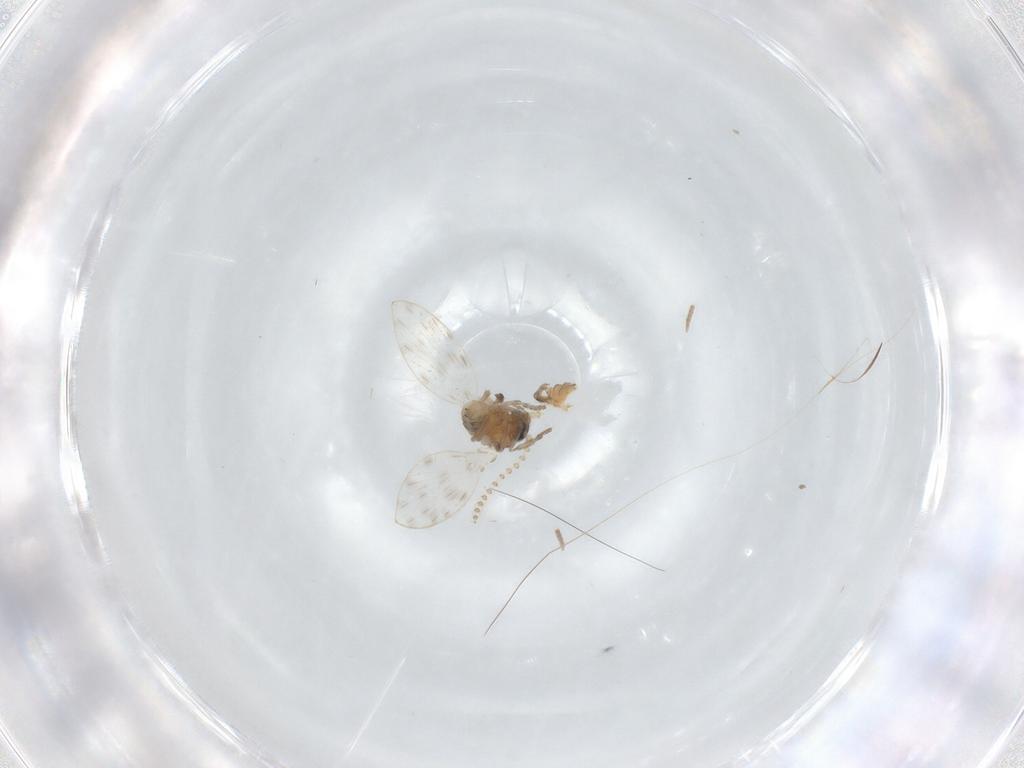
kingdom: Animalia
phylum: Arthropoda
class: Insecta
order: Diptera
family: Psychodidae
